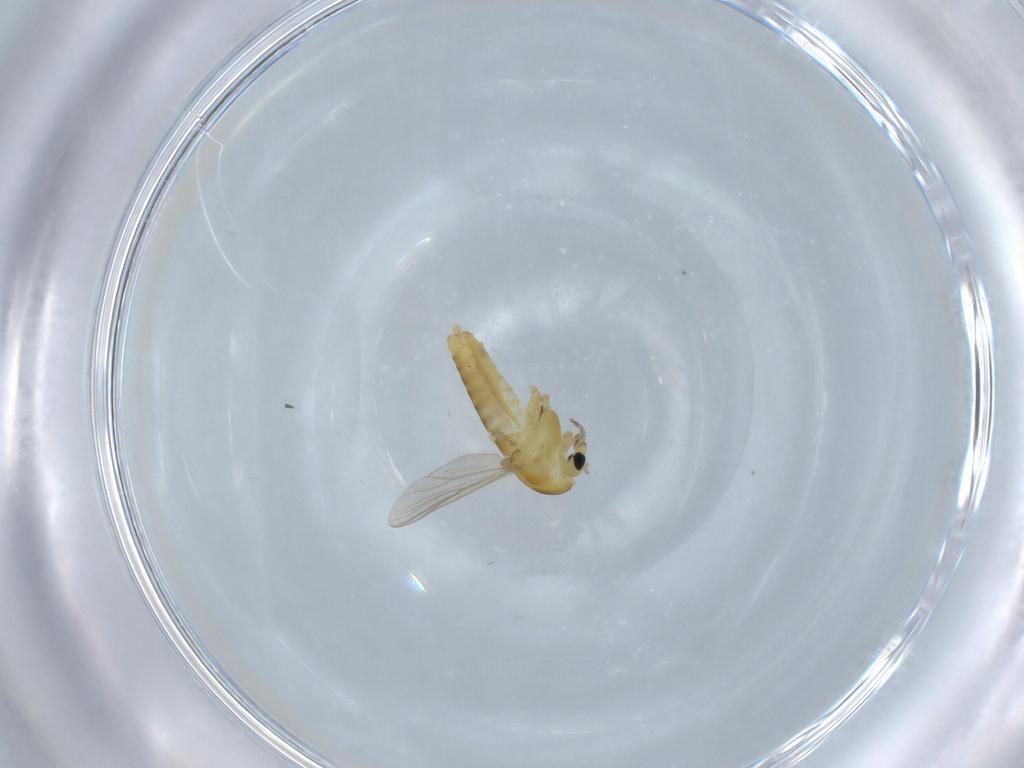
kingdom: Animalia
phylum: Arthropoda
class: Insecta
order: Diptera
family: Chironomidae
